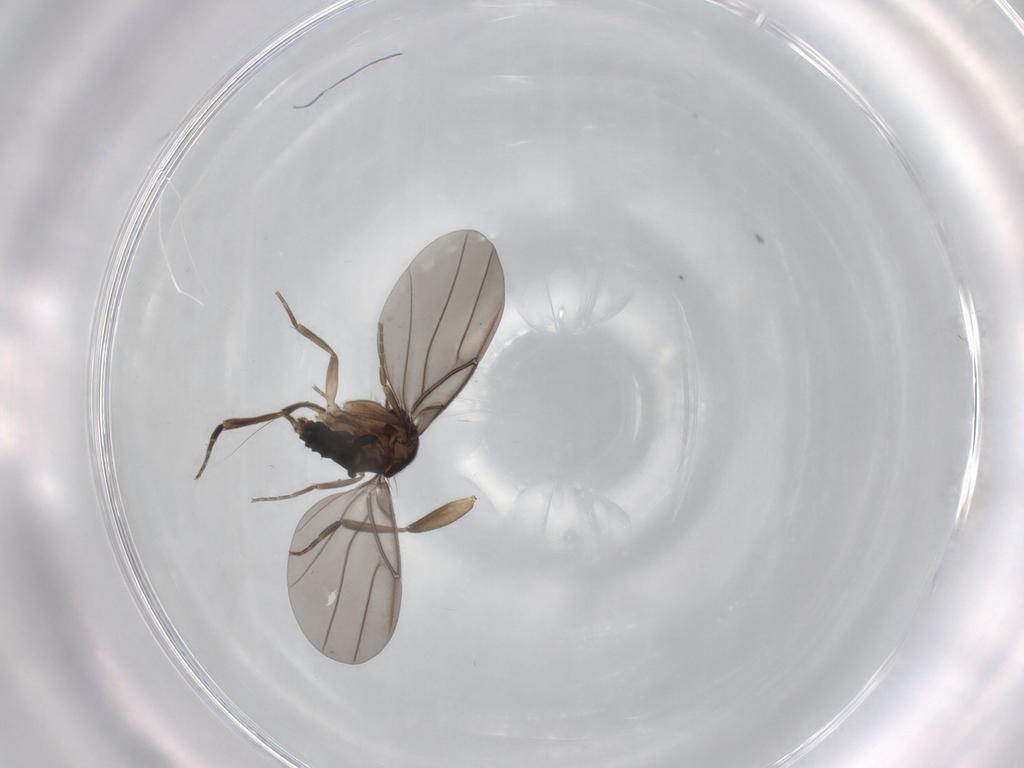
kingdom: Animalia
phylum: Arthropoda
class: Insecta
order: Diptera
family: Phoridae
